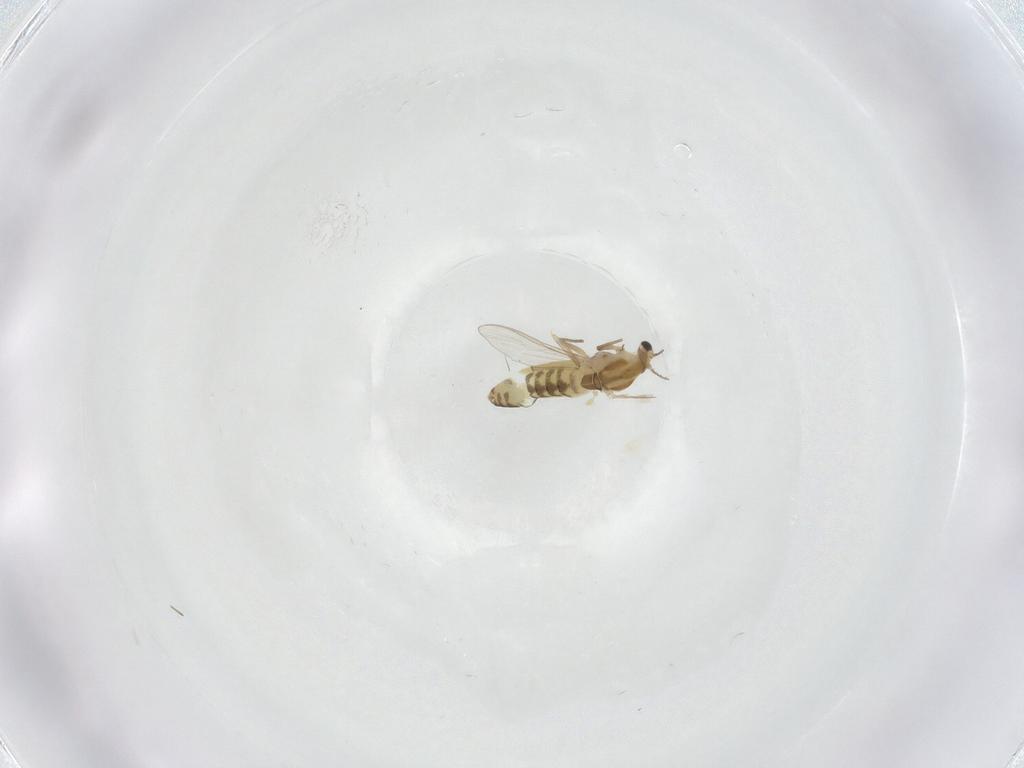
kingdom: Animalia
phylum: Arthropoda
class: Insecta
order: Diptera
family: Chironomidae
